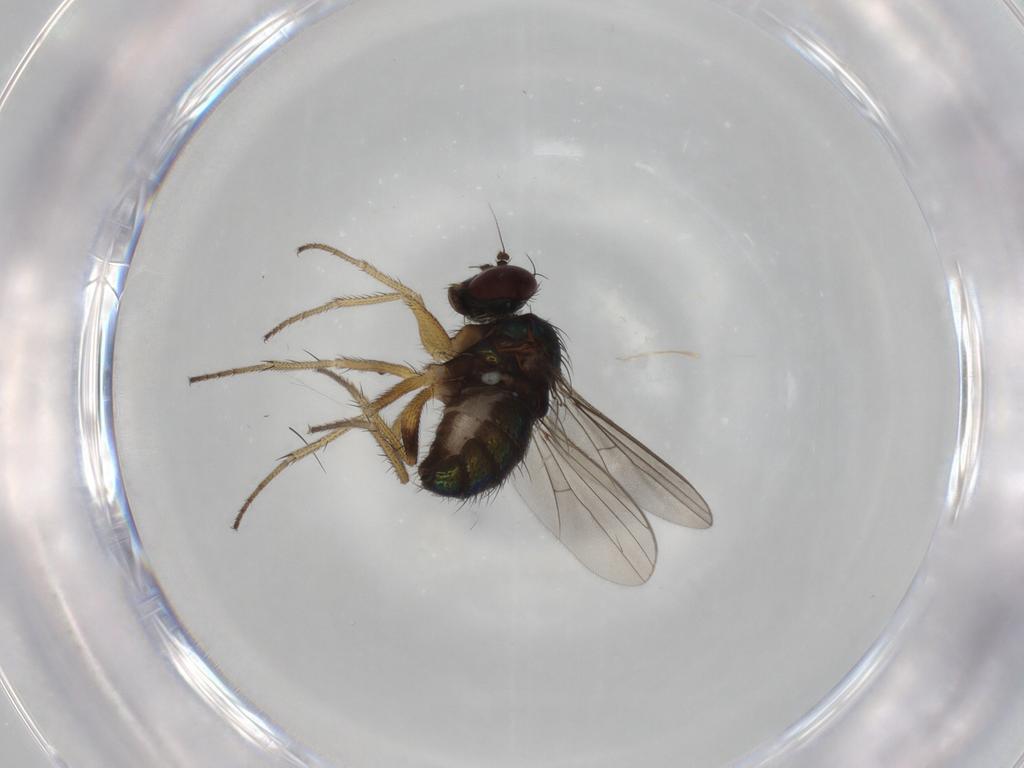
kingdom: Animalia
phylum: Arthropoda
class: Insecta
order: Diptera
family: Dolichopodidae
